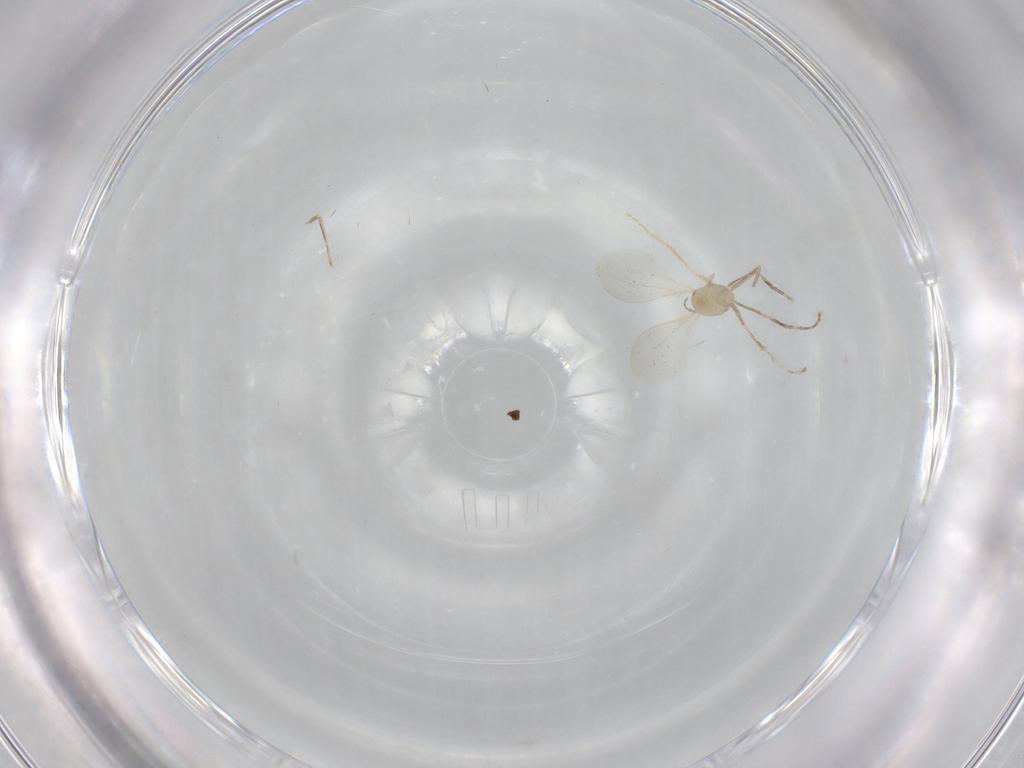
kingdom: Animalia
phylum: Arthropoda
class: Insecta
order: Diptera
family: Cecidomyiidae
